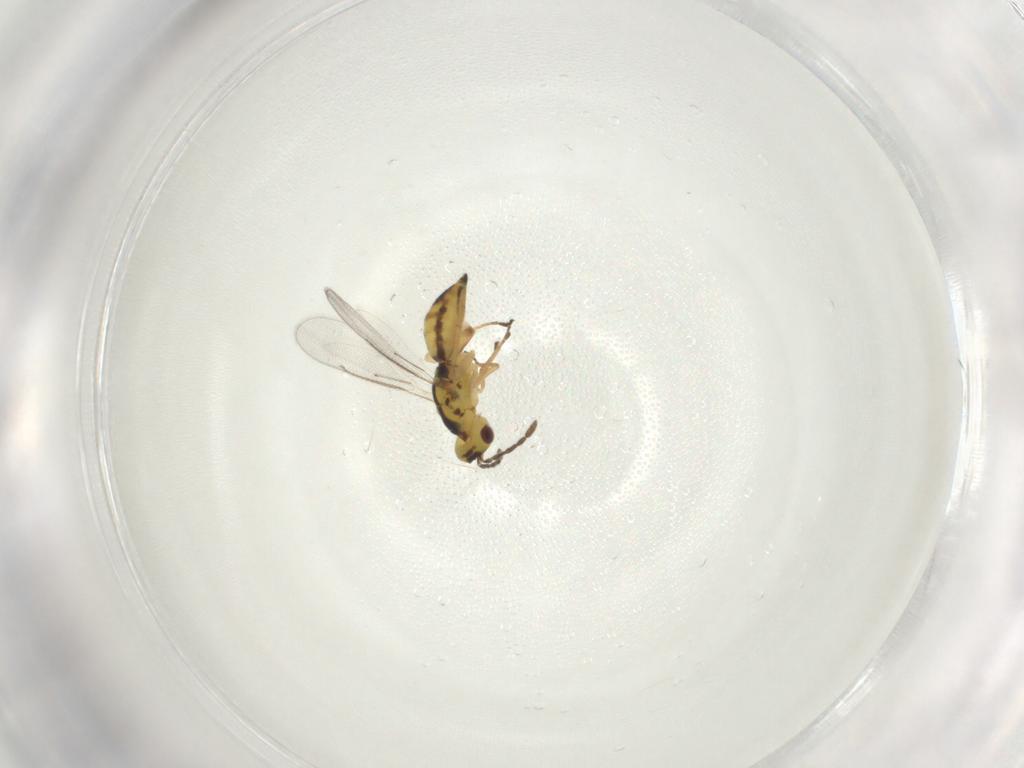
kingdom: Animalia
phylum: Arthropoda
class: Insecta
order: Hymenoptera
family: Eulophidae
